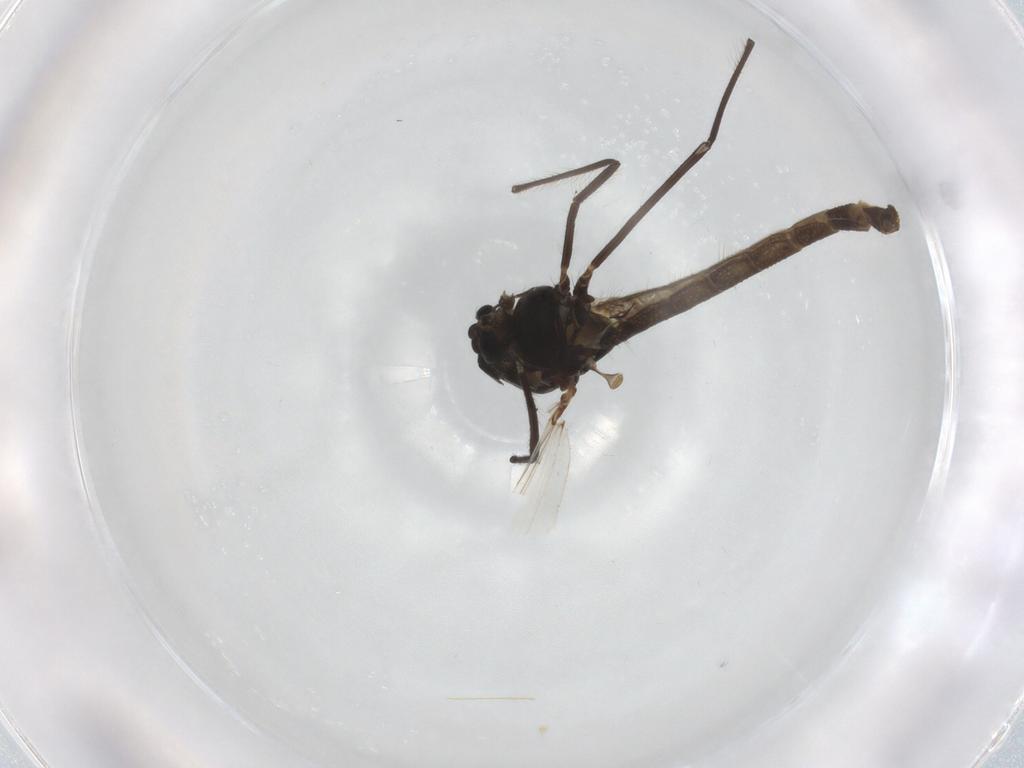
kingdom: Animalia
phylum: Arthropoda
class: Insecta
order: Diptera
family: Chironomidae
